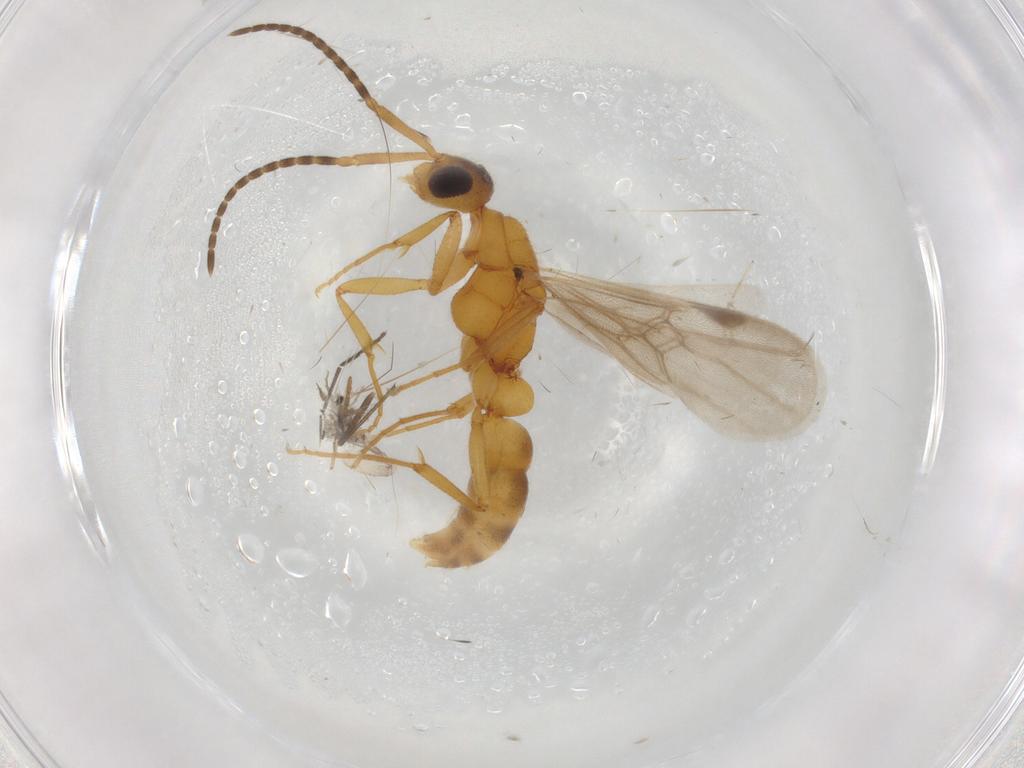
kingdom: Animalia
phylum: Arthropoda
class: Insecta
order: Hymenoptera
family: Formicidae
